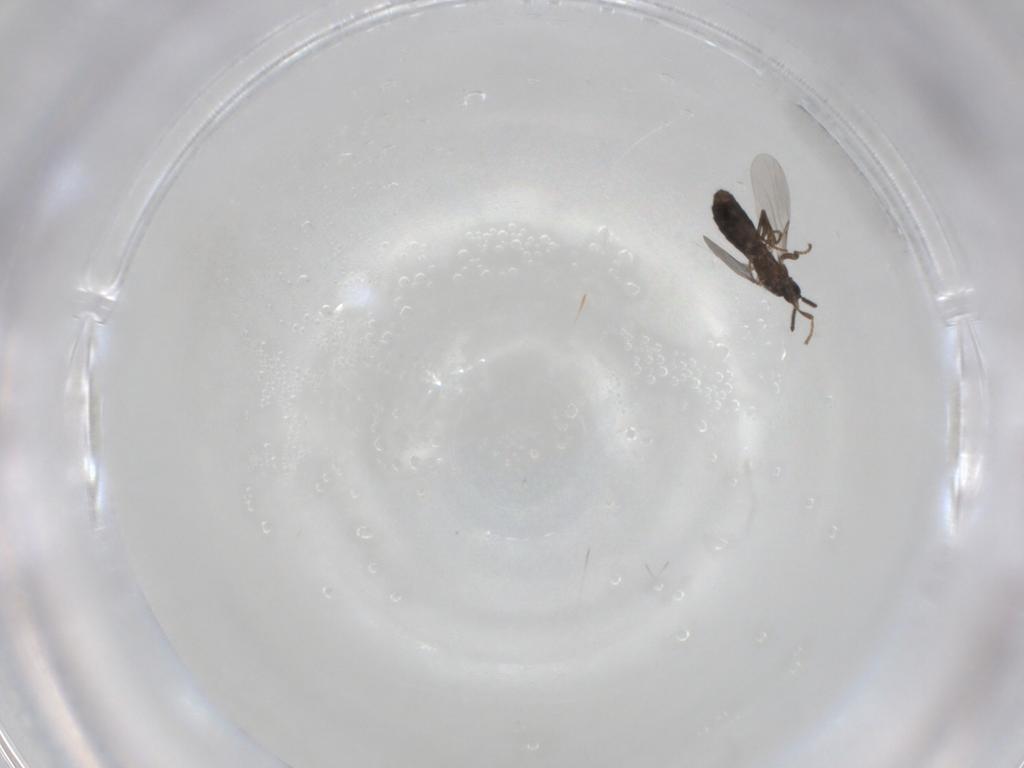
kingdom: Animalia
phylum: Arthropoda
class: Insecta
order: Diptera
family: Scatopsidae
